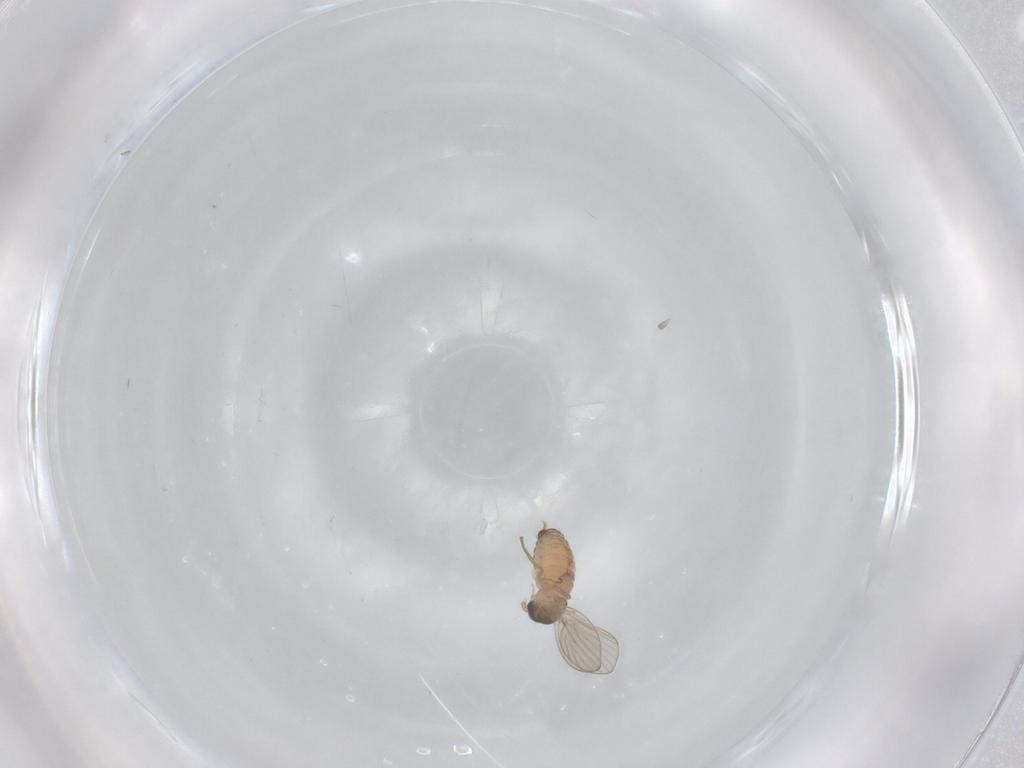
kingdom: Animalia
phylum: Arthropoda
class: Insecta
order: Diptera
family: Psychodidae
